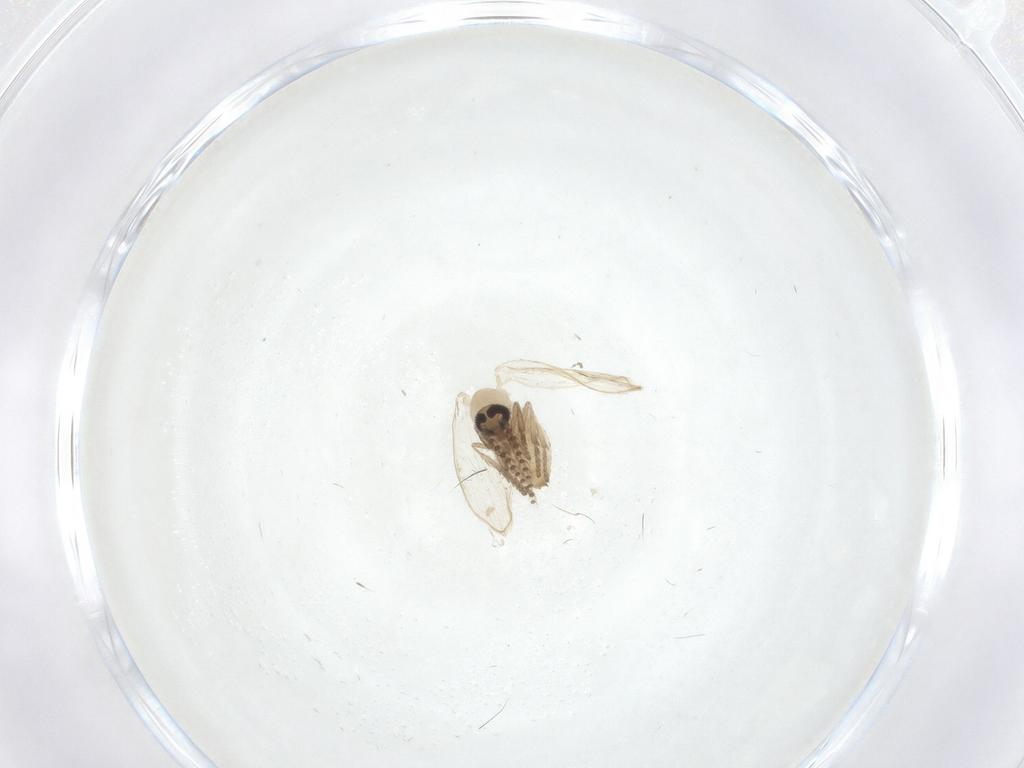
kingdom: Animalia
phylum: Arthropoda
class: Insecta
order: Diptera
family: Psychodidae
